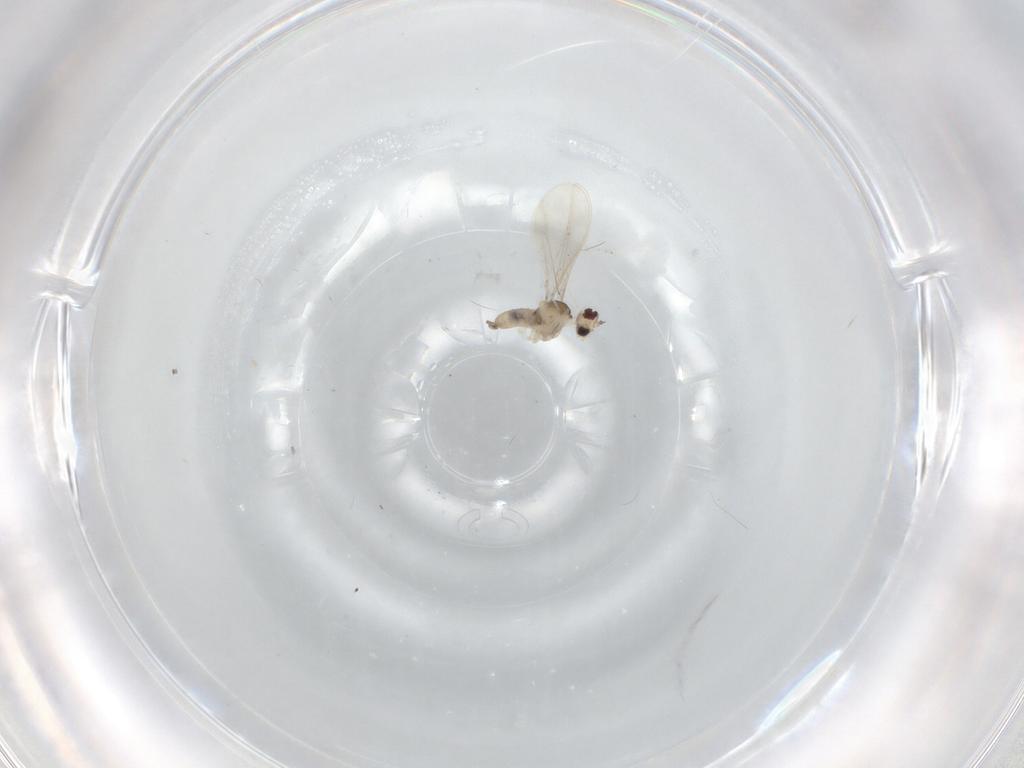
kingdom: Animalia
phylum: Arthropoda
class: Insecta
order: Diptera
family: Cecidomyiidae
